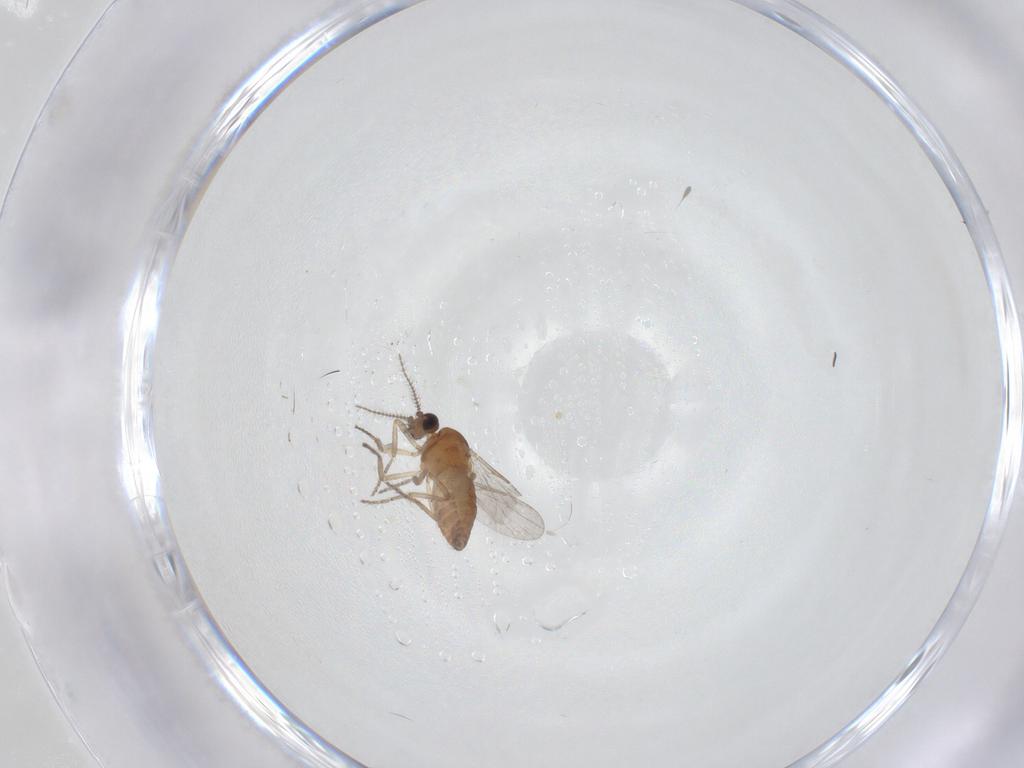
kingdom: Animalia
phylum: Arthropoda
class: Insecta
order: Diptera
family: Ceratopogonidae
